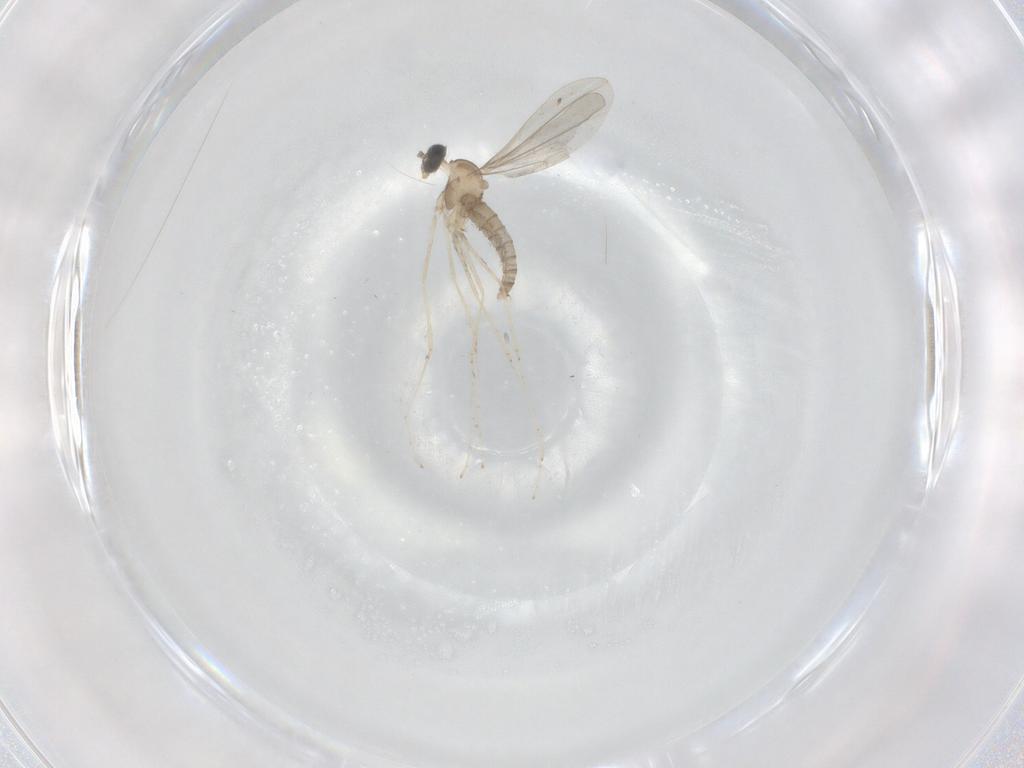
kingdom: Animalia
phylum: Arthropoda
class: Insecta
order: Diptera
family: Cecidomyiidae
